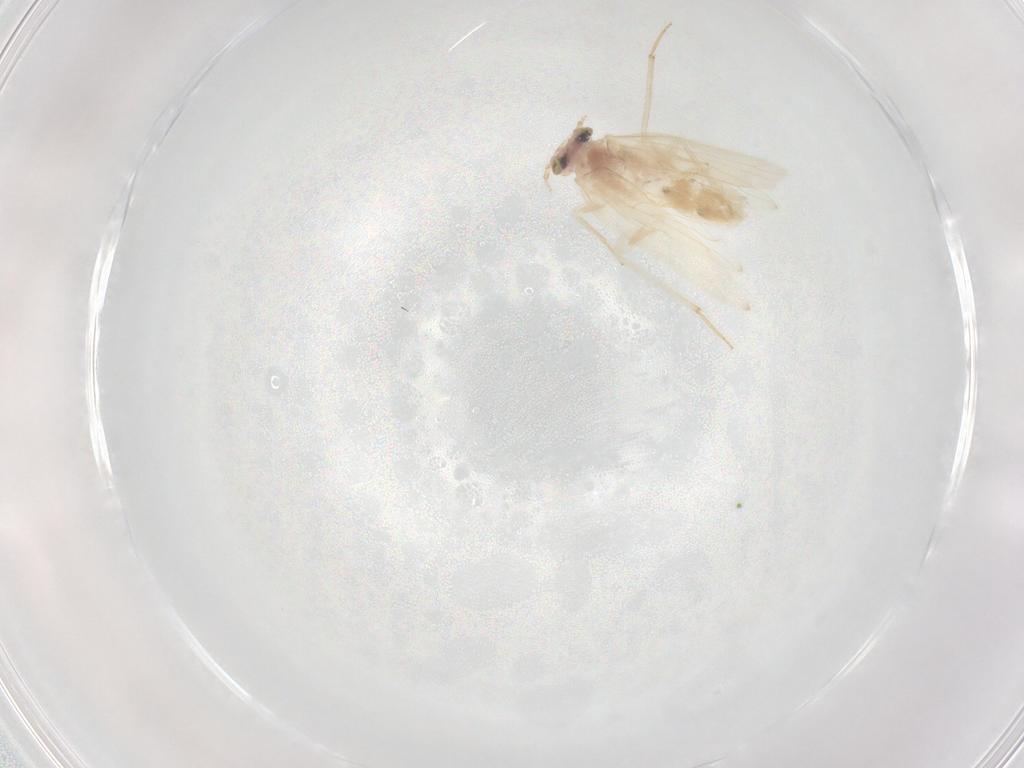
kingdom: Animalia
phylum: Arthropoda
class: Insecta
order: Psocodea
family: Lepidopsocidae
